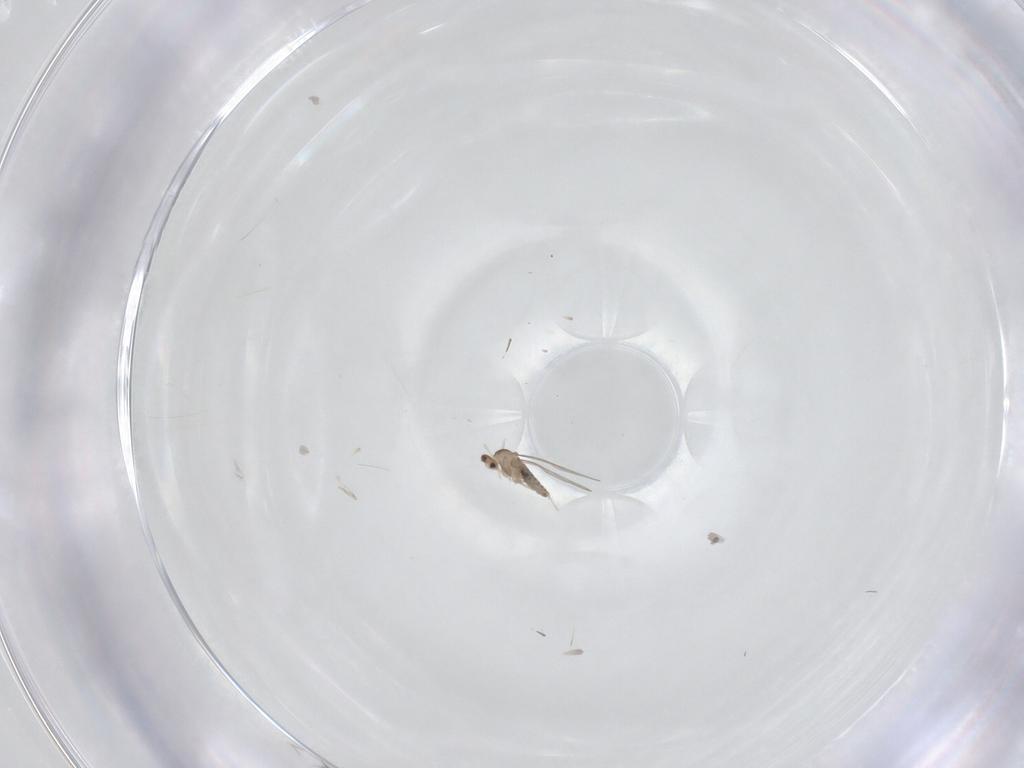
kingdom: Animalia
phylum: Arthropoda
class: Insecta
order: Diptera
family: Cecidomyiidae
